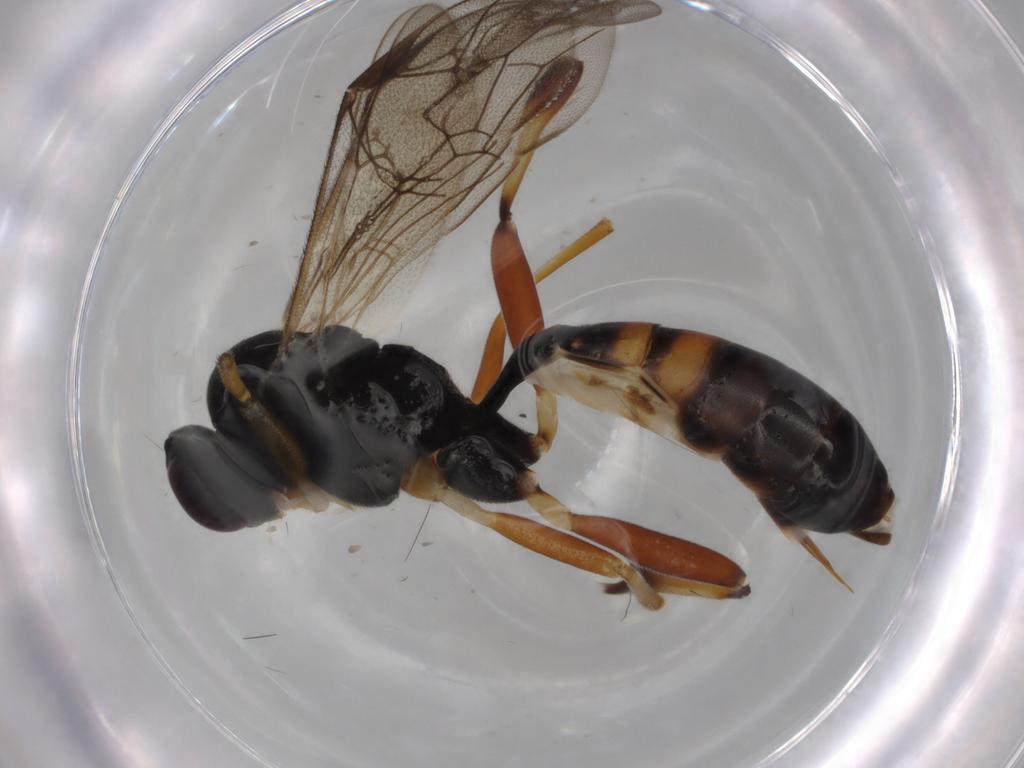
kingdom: Animalia
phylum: Arthropoda
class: Insecta
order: Hymenoptera
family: Ichneumonidae
